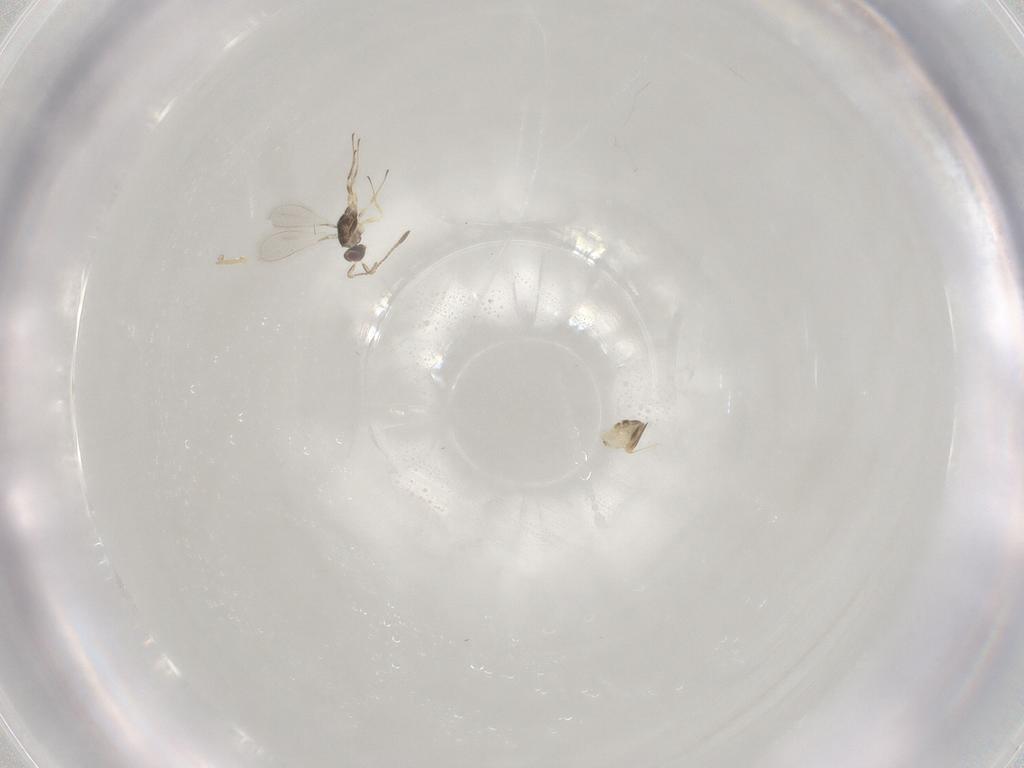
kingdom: Animalia
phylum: Arthropoda
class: Insecta
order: Hymenoptera
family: Mymaridae
